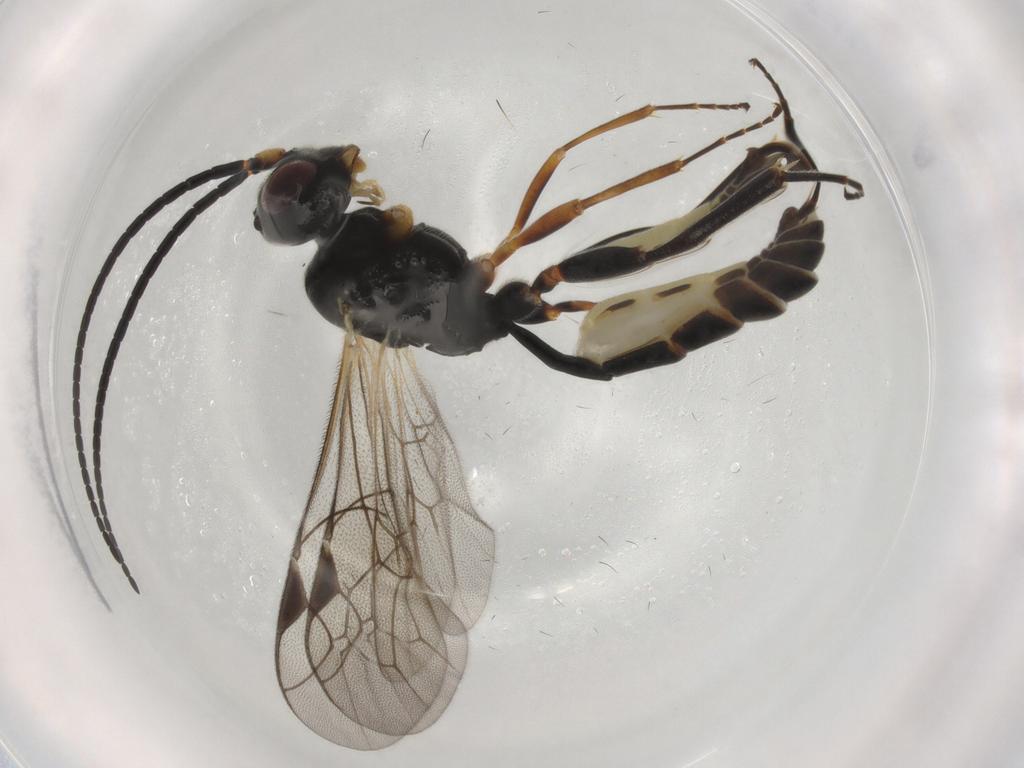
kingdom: Animalia
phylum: Arthropoda
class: Insecta
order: Hymenoptera
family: Ichneumonidae
